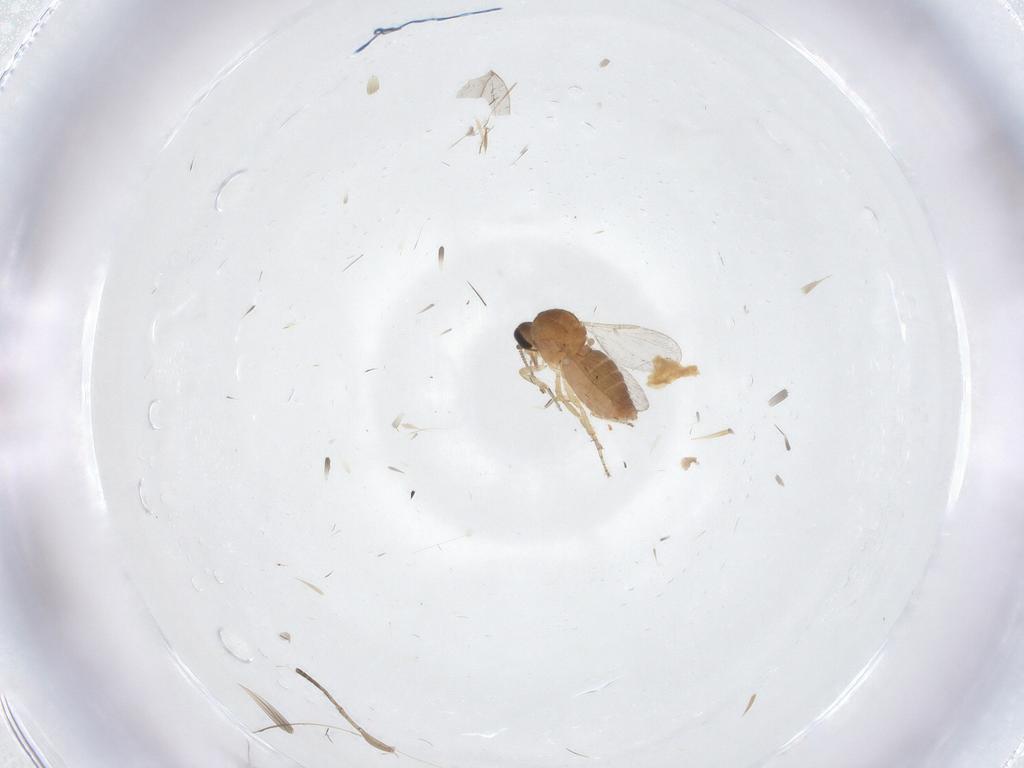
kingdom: Animalia
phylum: Arthropoda
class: Insecta
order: Diptera
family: Ceratopogonidae
